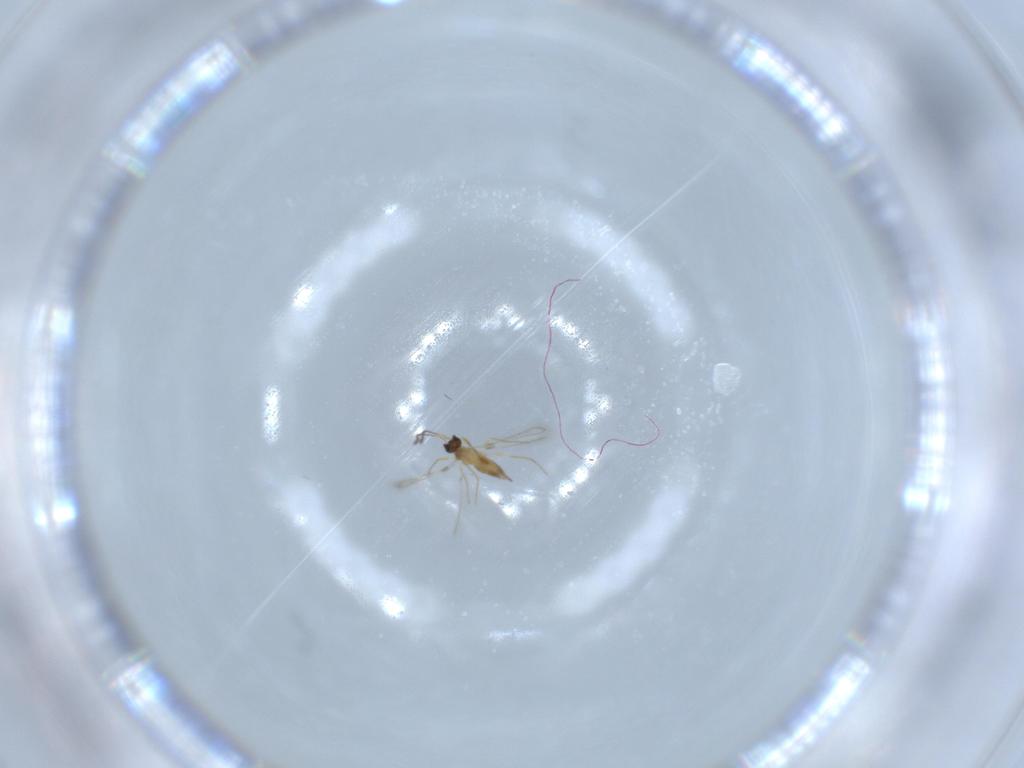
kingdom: Animalia
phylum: Arthropoda
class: Insecta
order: Hymenoptera
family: Mymaridae
